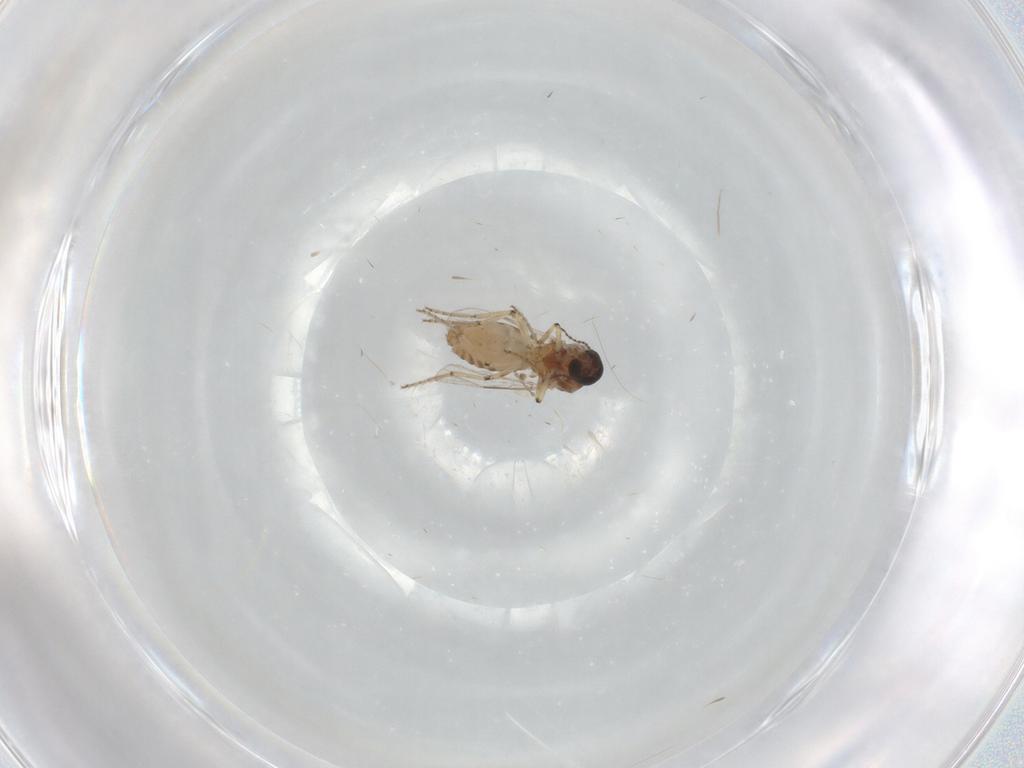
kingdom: Animalia
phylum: Arthropoda
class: Insecta
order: Diptera
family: Ceratopogonidae
